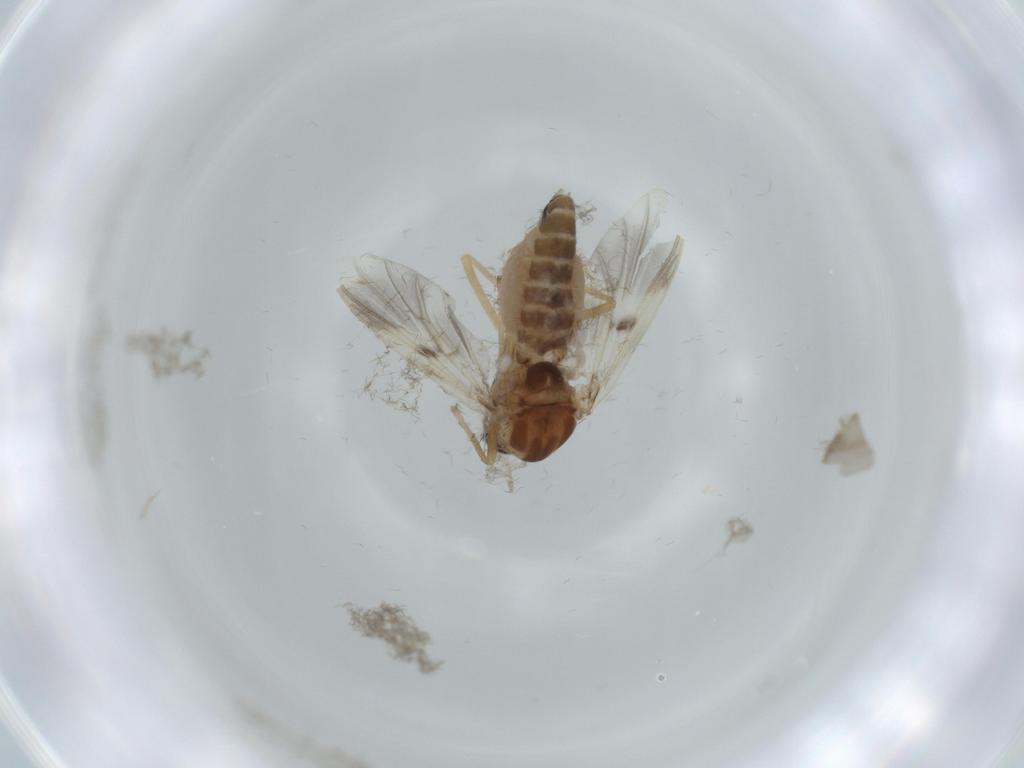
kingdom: Animalia
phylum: Arthropoda
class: Insecta
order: Diptera
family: Chironomidae
